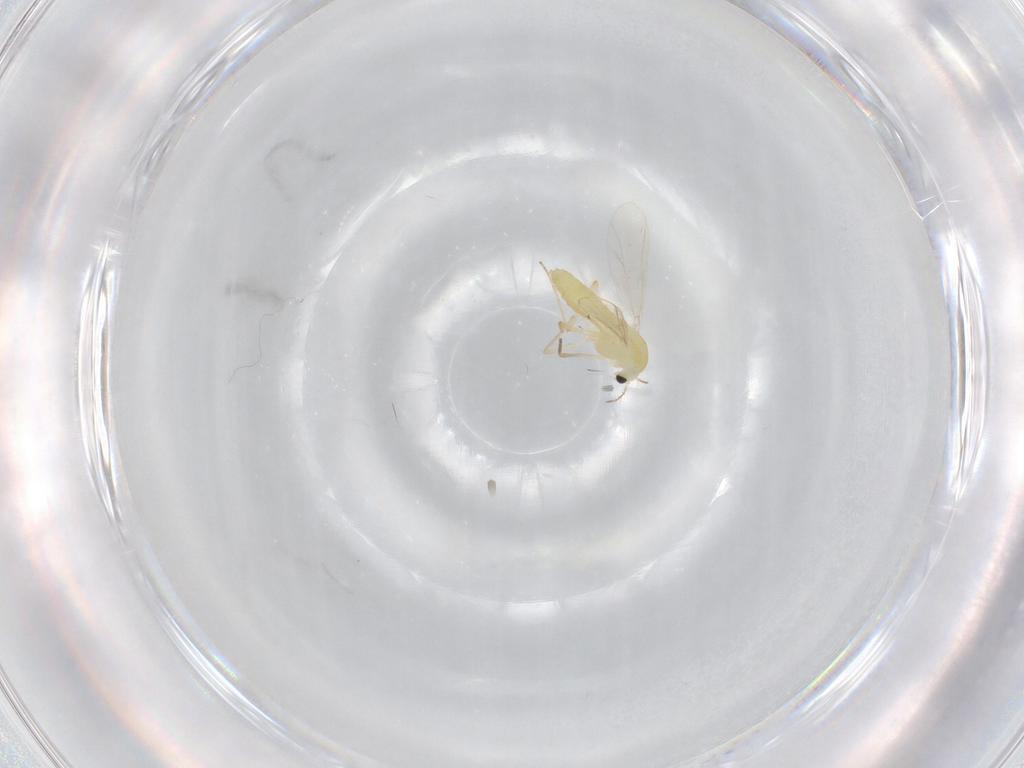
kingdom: Animalia
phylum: Arthropoda
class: Insecta
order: Diptera
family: Chironomidae
